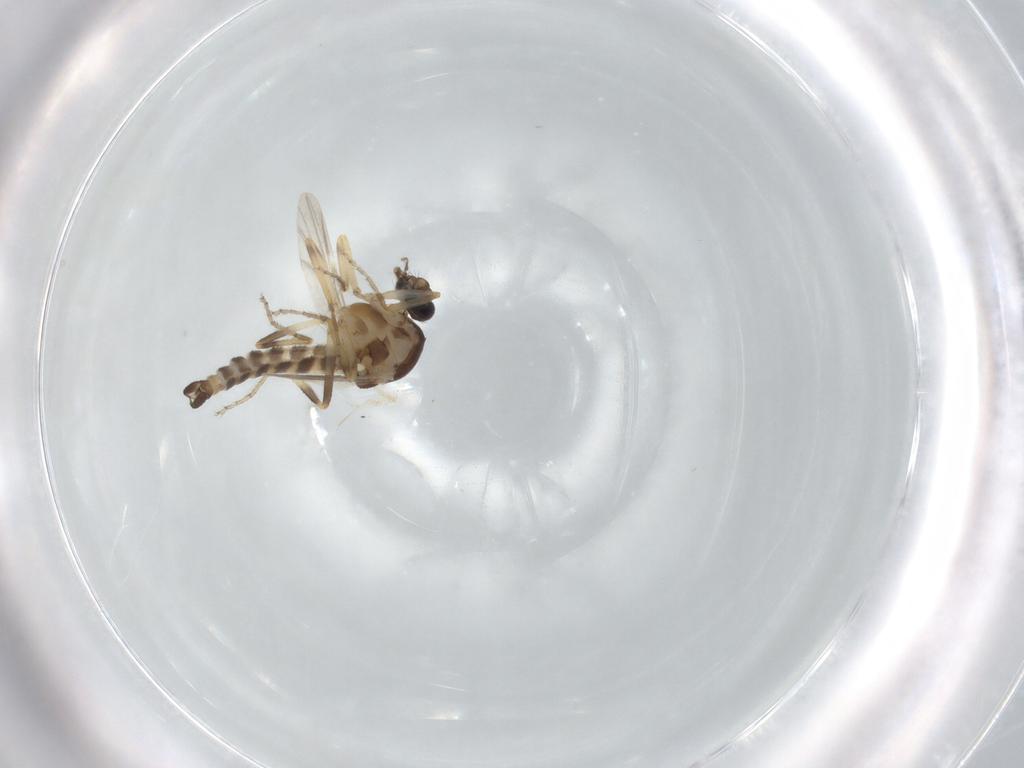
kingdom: Animalia
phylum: Arthropoda
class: Insecta
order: Diptera
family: Ceratopogonidae
